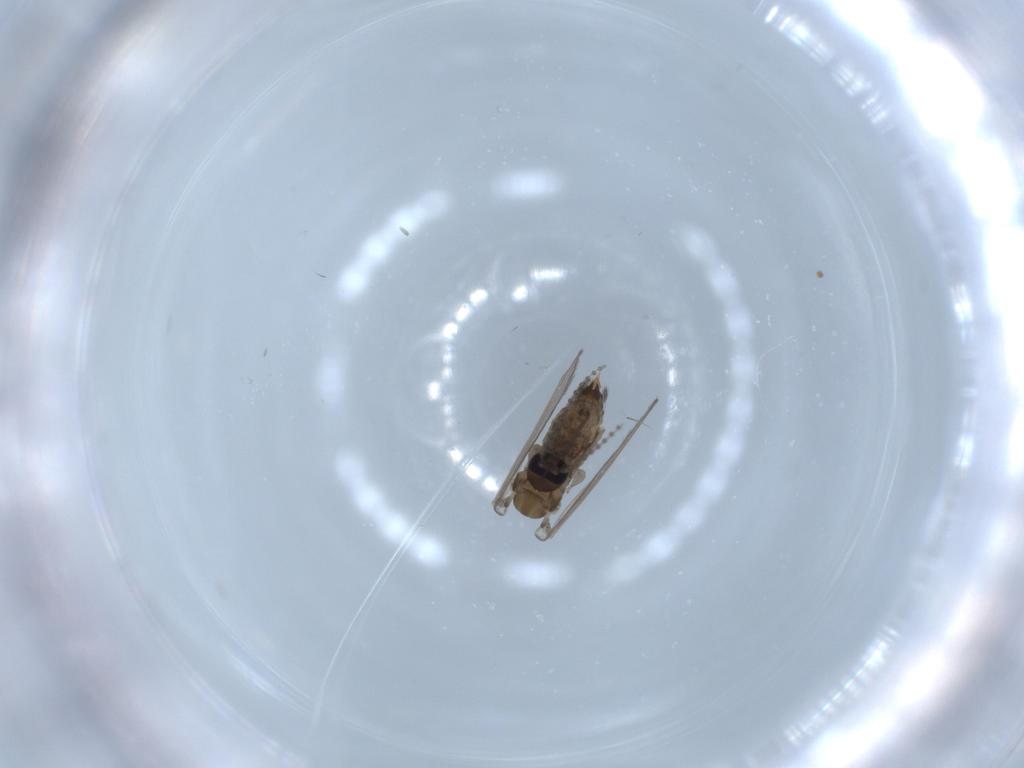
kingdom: Animalia
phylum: Arthropoda
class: Insecta
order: Diptera
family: Psychodidae
